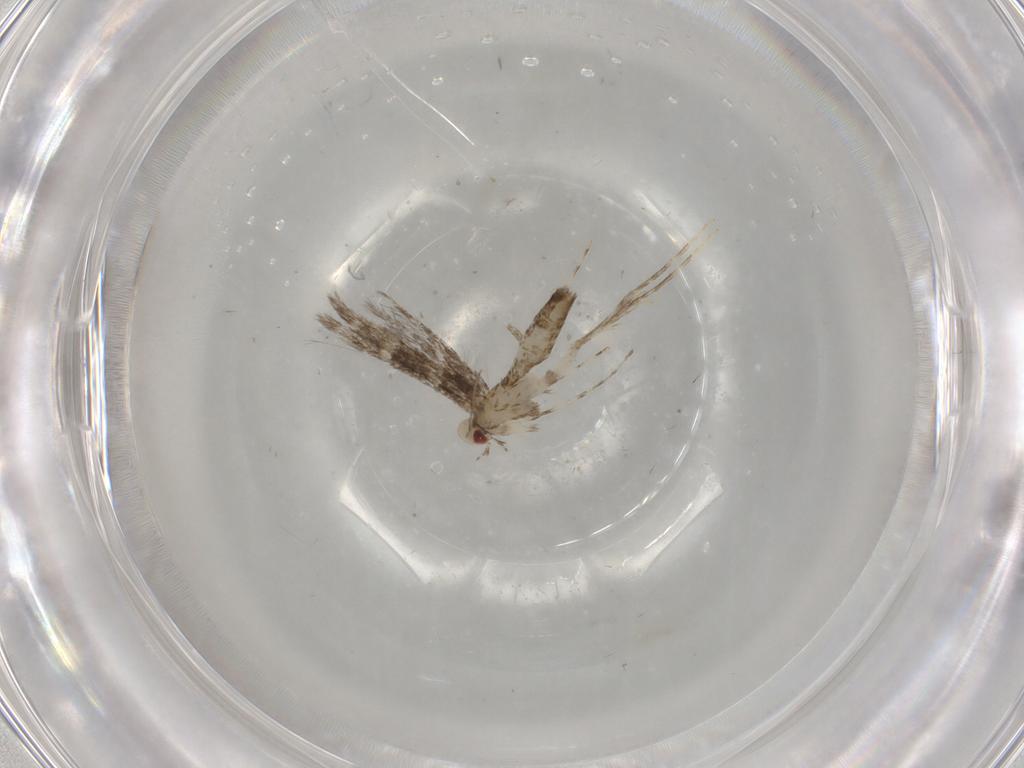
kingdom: Animalia
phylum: Arthropoda
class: Insecta
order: Lepidoptera
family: Gracillariidae
